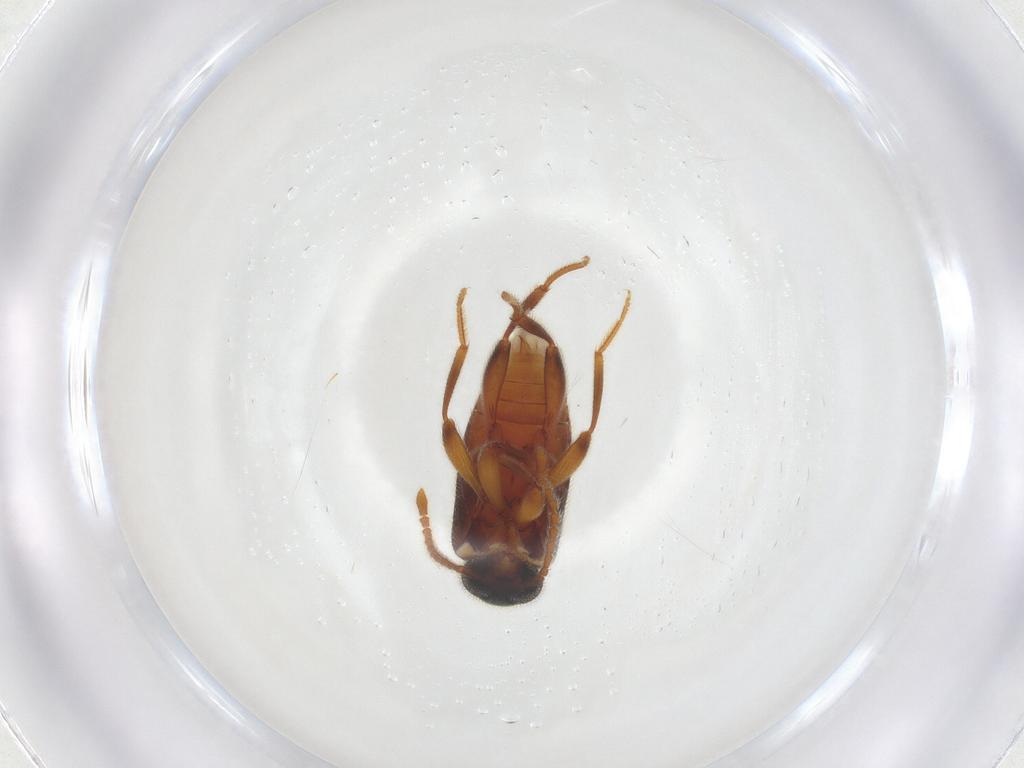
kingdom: Animalia
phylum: Arthropoda
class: Insecta
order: Coleoptera
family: Aderidae
